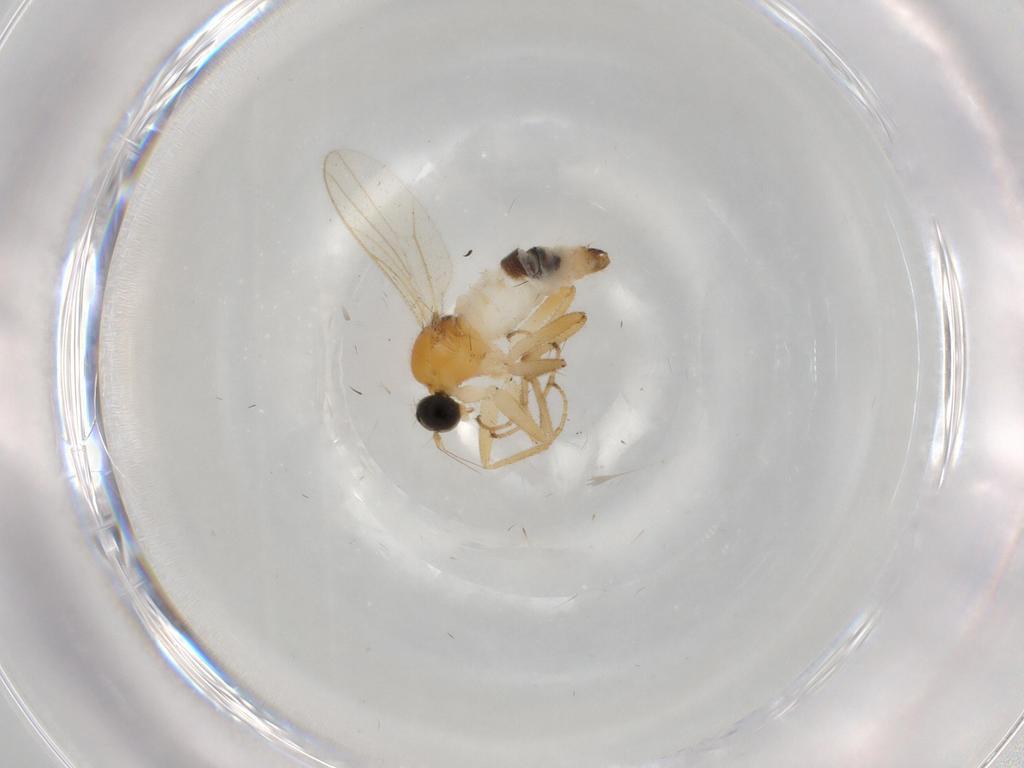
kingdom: Animalia
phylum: Arthropoda
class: Insecta
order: Diptera
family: Hybotidae
